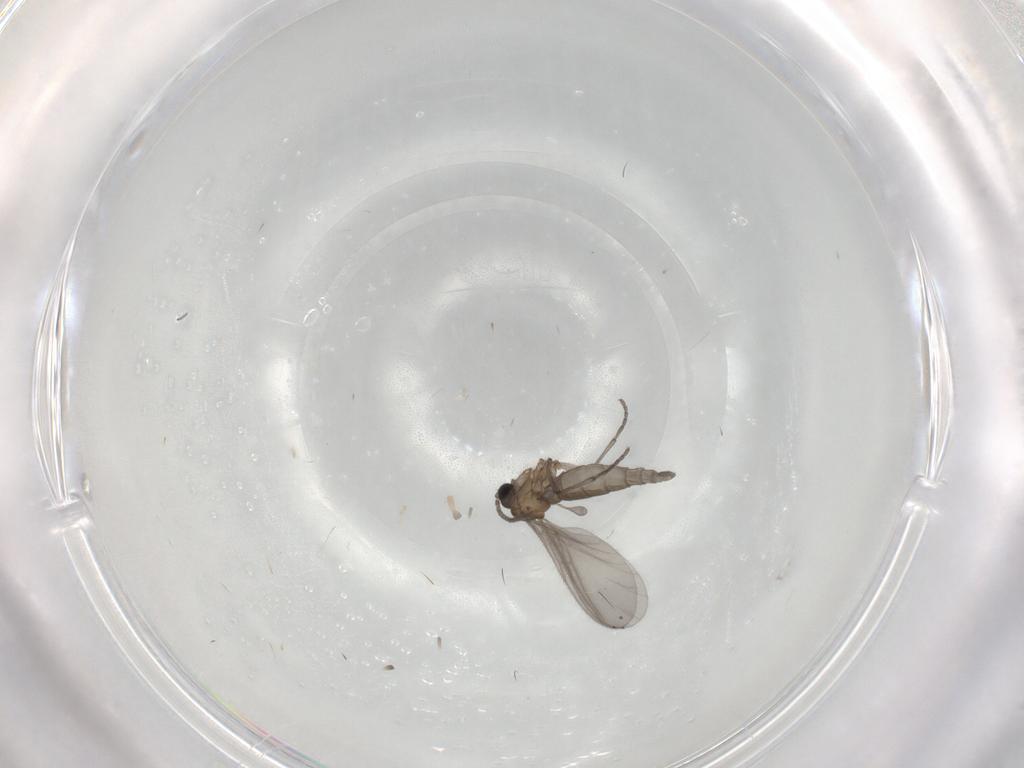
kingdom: Animalia
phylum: Arthropoda
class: Insecta
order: Diptera
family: Sciaridae
